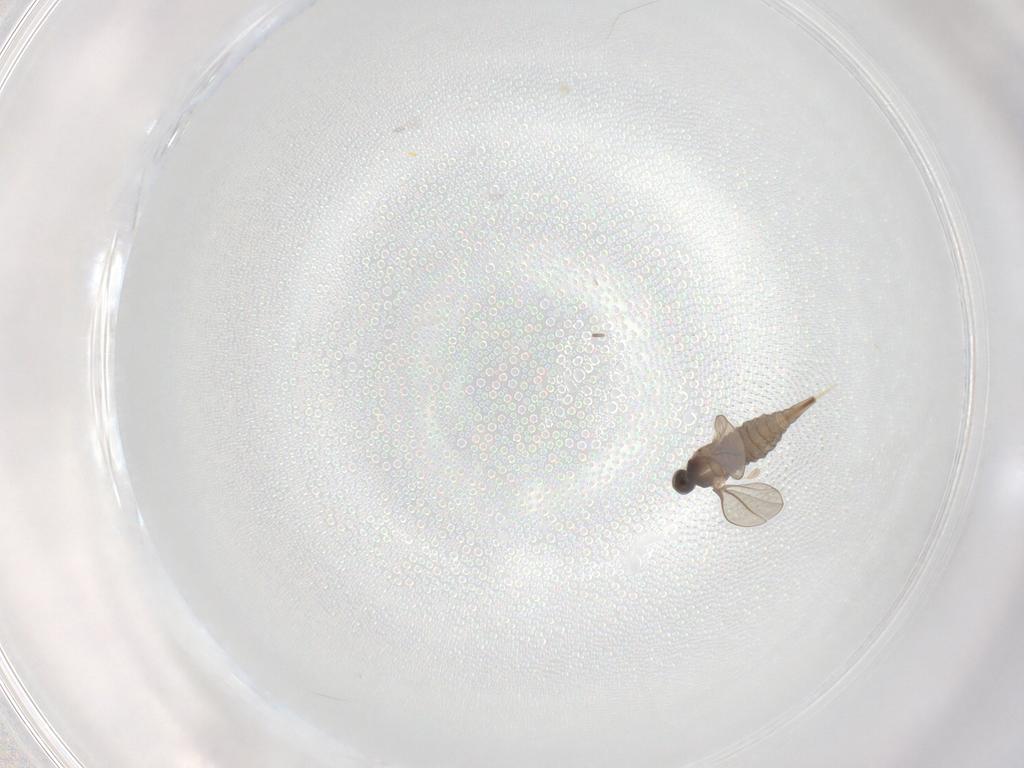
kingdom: Animalia
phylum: Arthropoda
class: Insecta
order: Diptera
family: Cecidomyiidae
